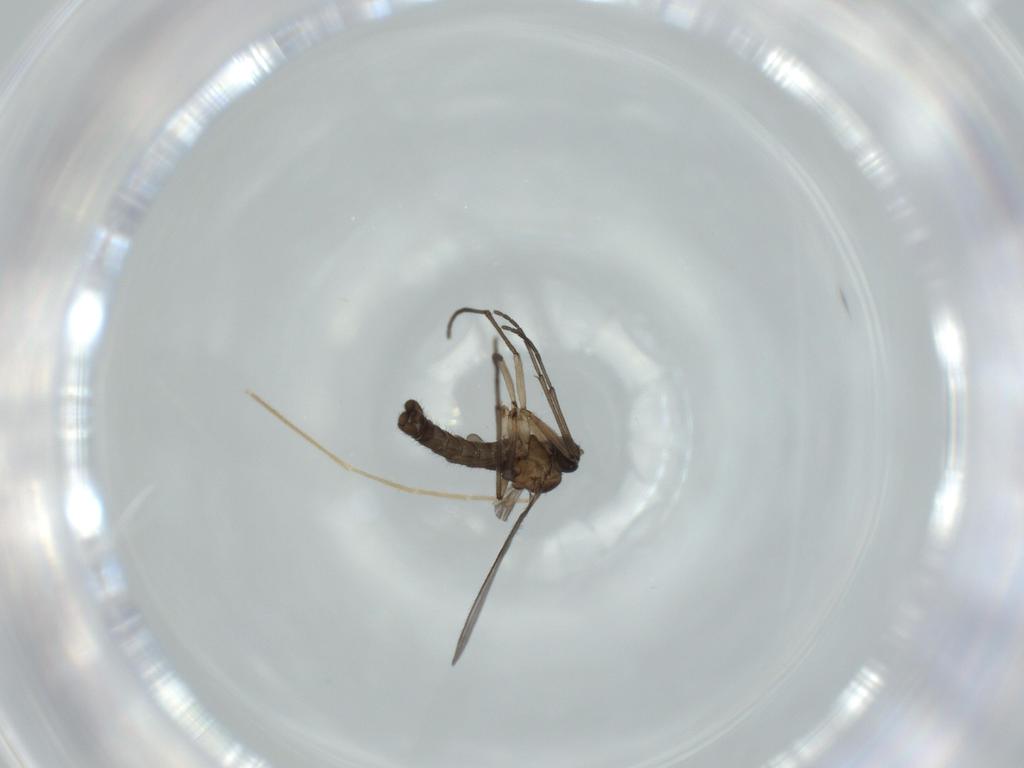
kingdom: Animalia
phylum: Arthropoda
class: Insecta
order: Diptera
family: Chironomidae
